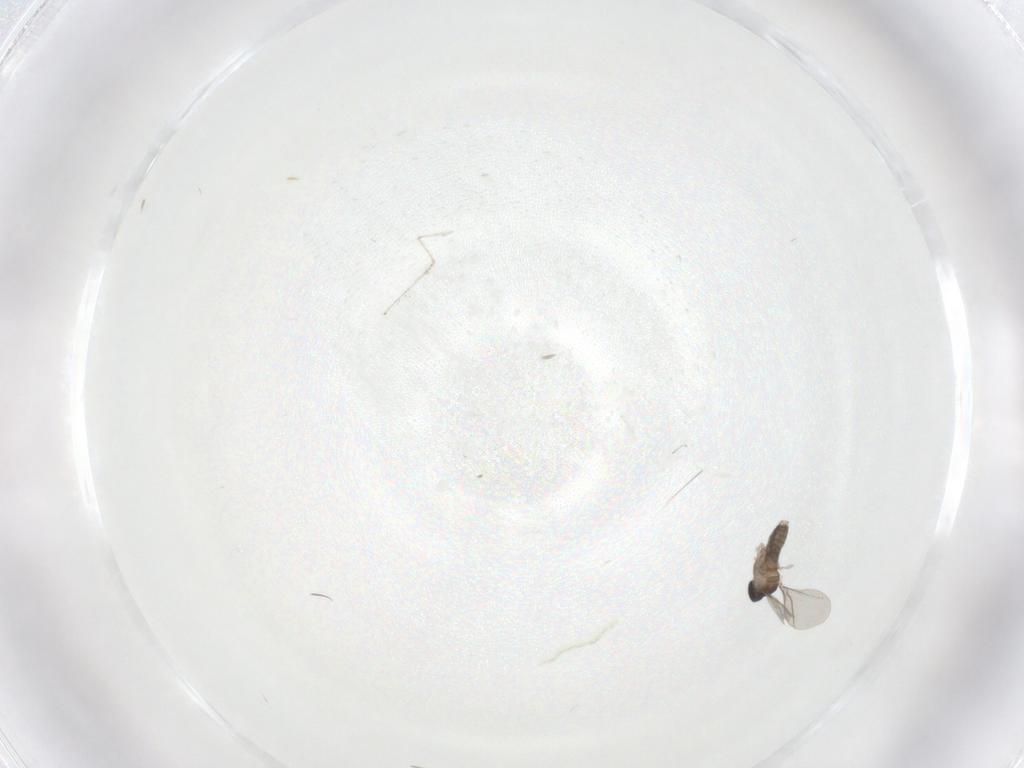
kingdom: Animalia
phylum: Arthropoda
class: Insecta
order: Diptera
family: Cecidomyiidae
